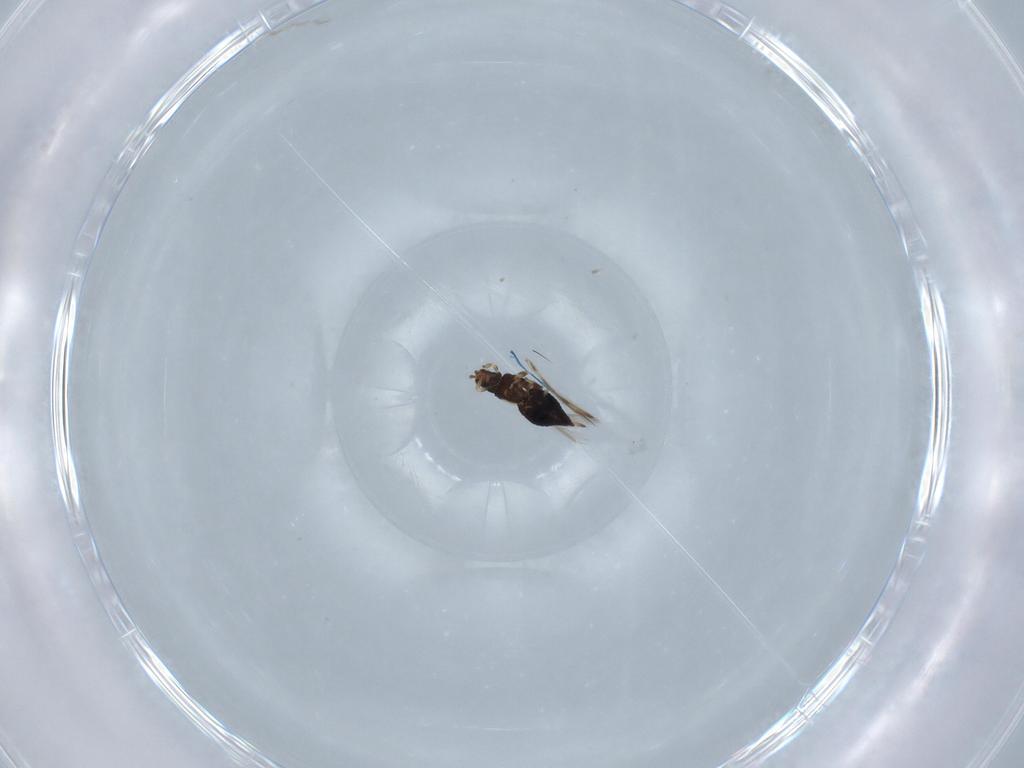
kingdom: Animalia
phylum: Arthropoda
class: Insecta
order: Thysanoptera
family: Thripidae
